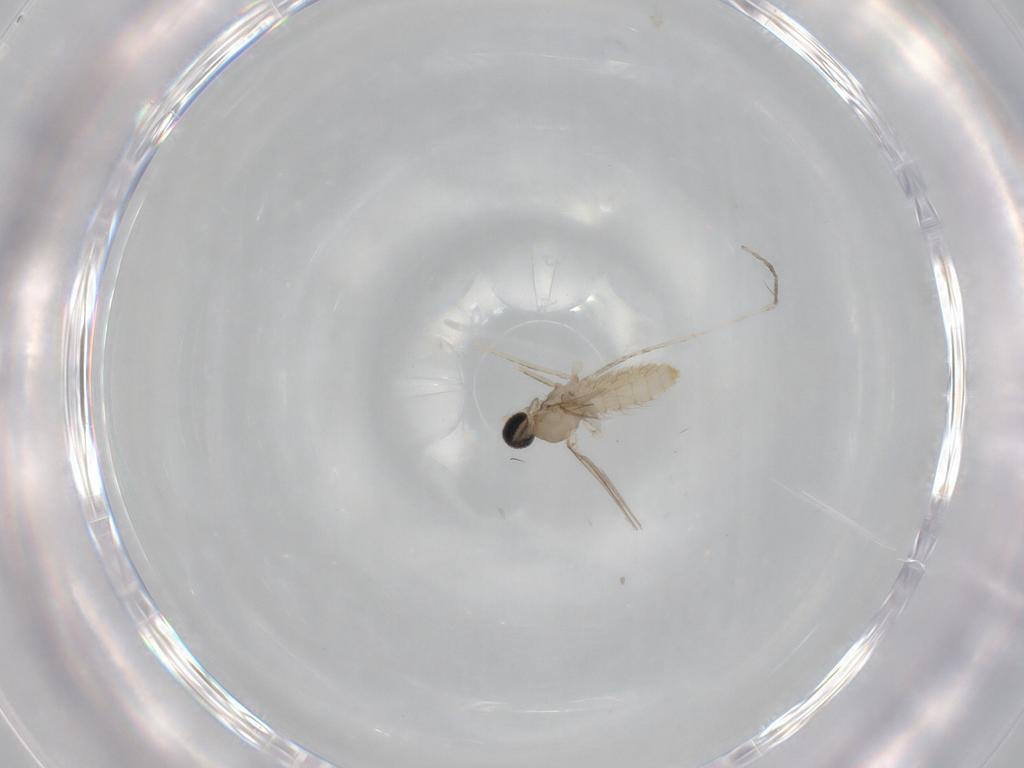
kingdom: Animalia
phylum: Arthropoda
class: Insecta
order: Diptera
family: Cecidomyiidae
